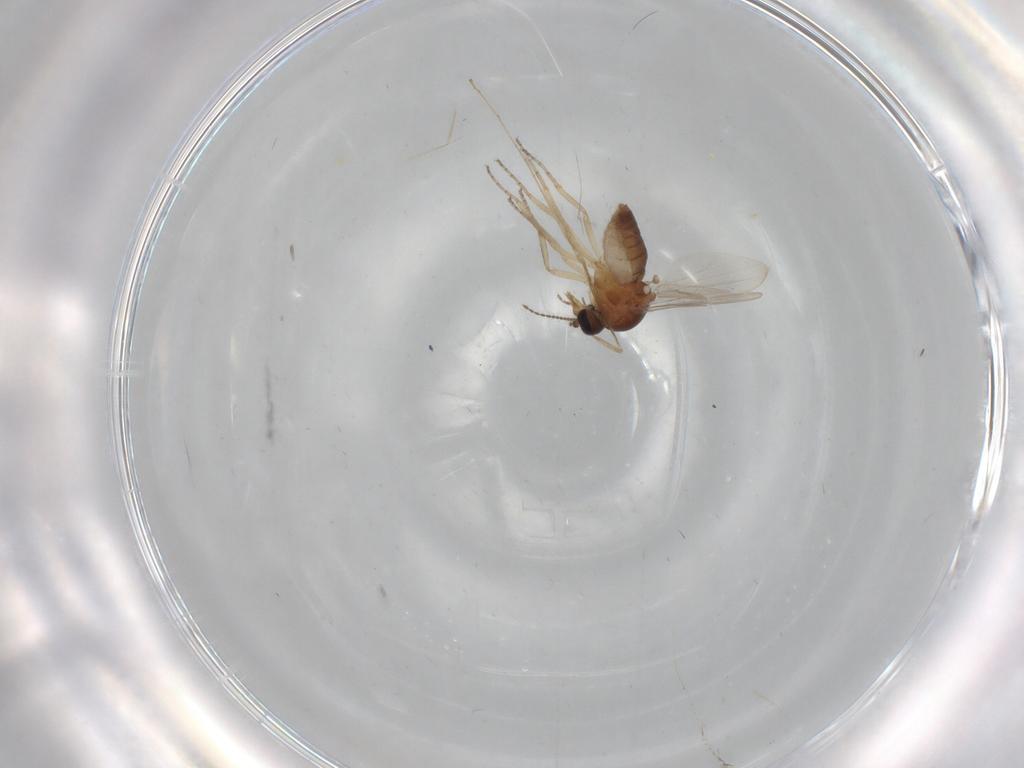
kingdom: Animalia
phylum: Arthropoda
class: Insecta
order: Diptera
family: Ceratopogonidae
